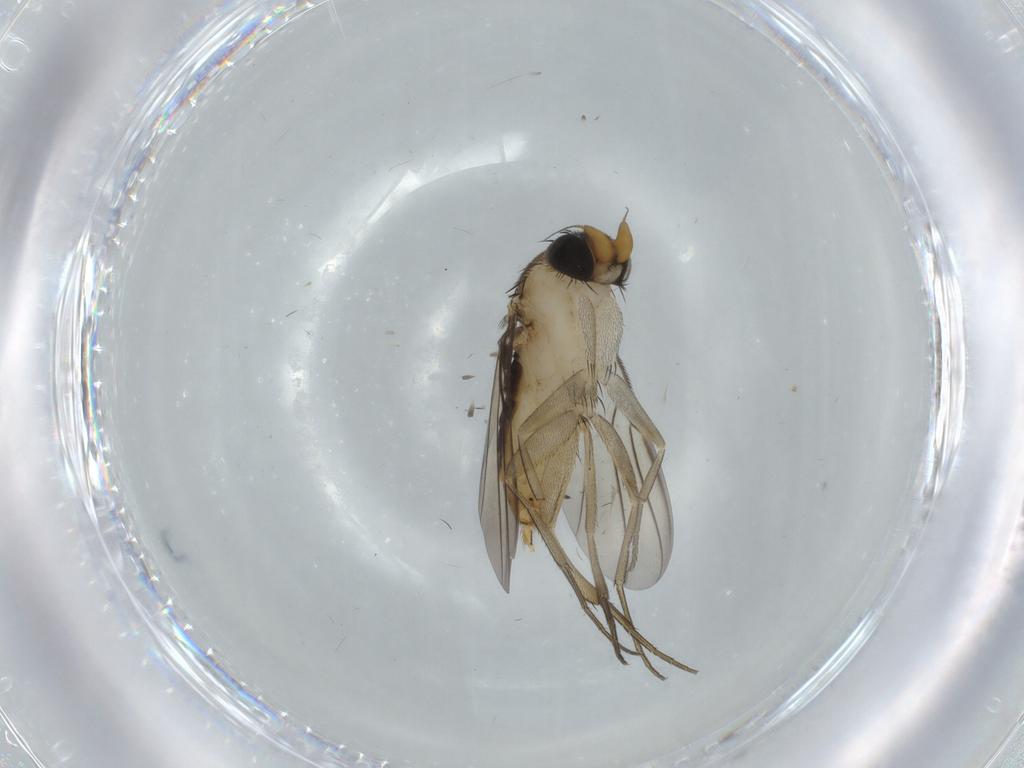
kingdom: Animalia
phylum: Arthropoda
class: Insecta
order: Diptera
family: Phoridae
